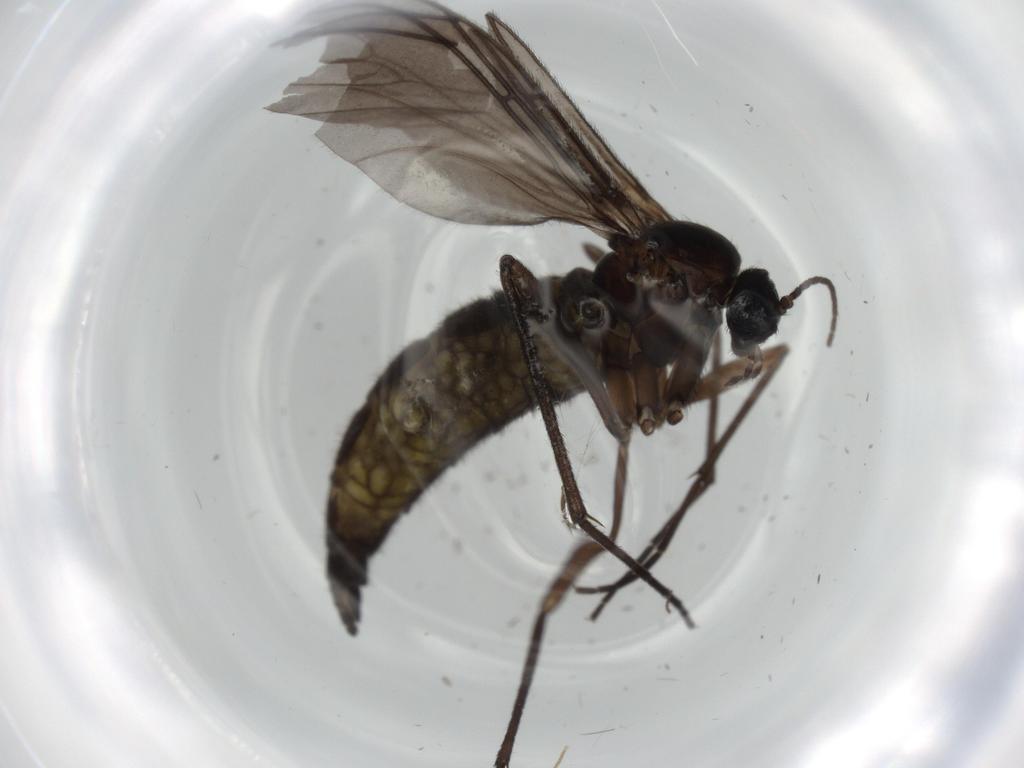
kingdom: Animalia
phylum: Arthropoda
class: Insecta
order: Diptera
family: Sciaridae
